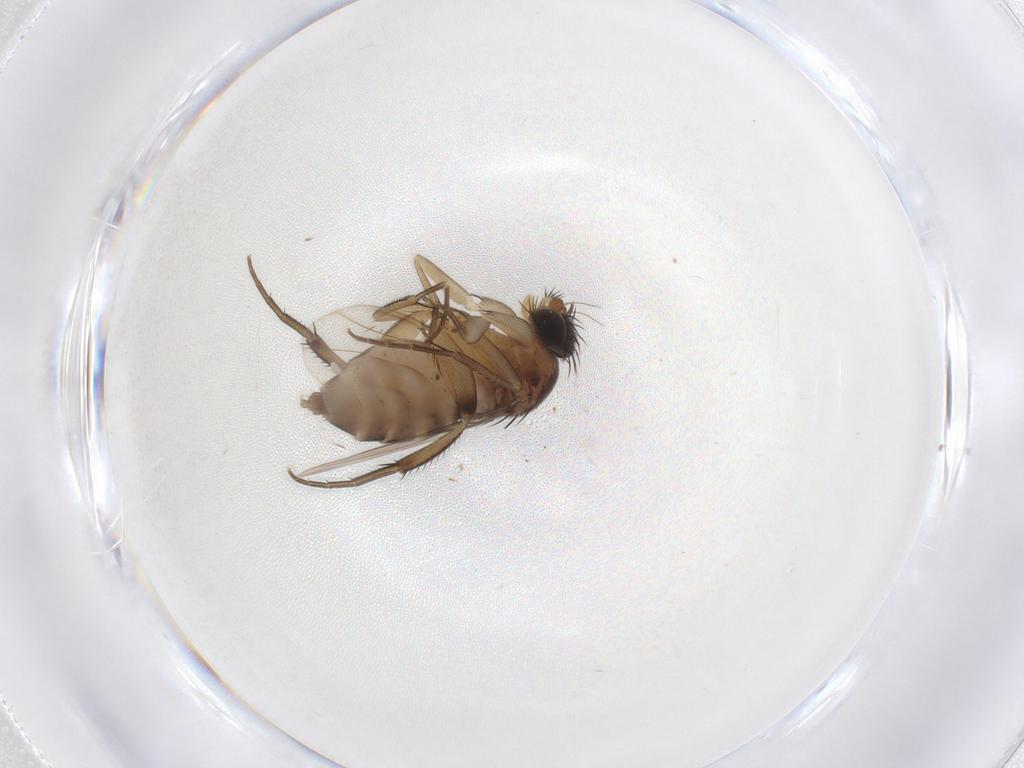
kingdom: Animalia
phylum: Arthropoda
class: Insecta
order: Diptera
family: Phoridae
